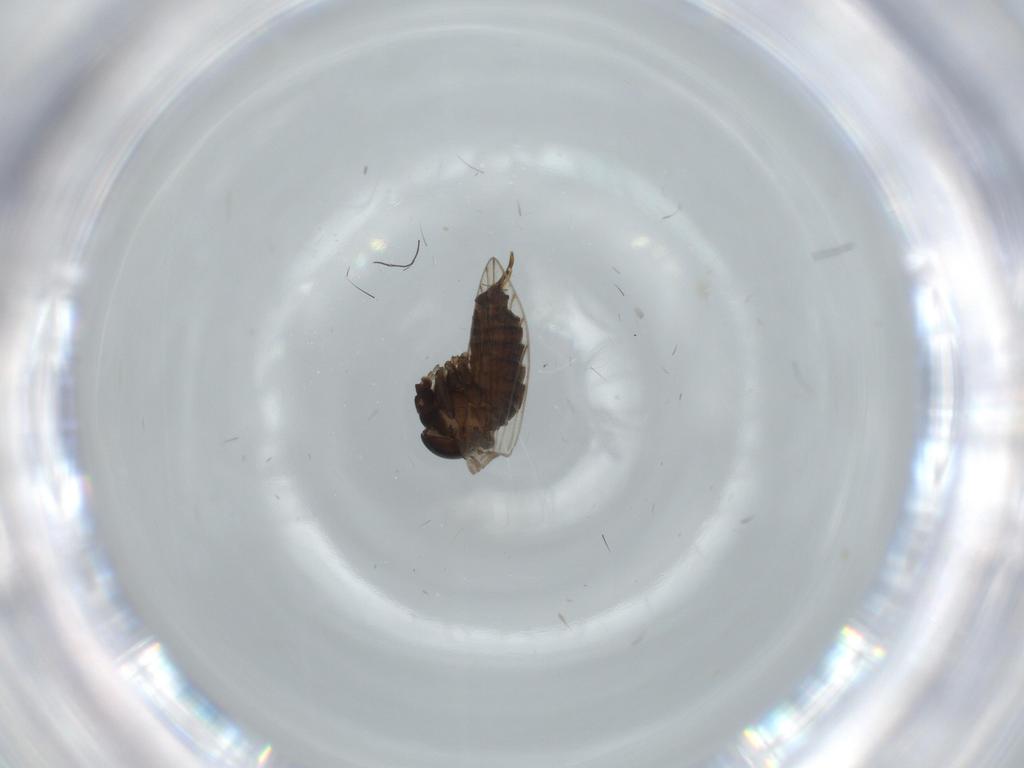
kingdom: Animalia
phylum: Arthropoda
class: Insecta
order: Diptera
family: Psychodidae
